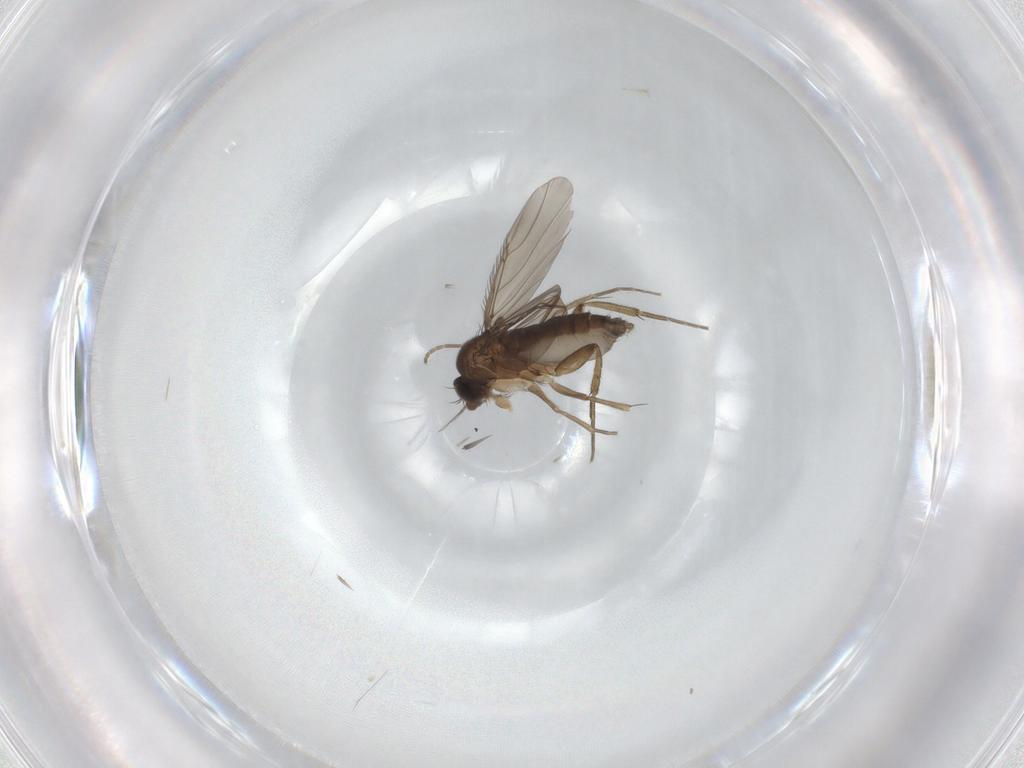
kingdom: Animalia
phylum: Arthropoda
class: Insecta
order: Diptera
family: Phoridae
